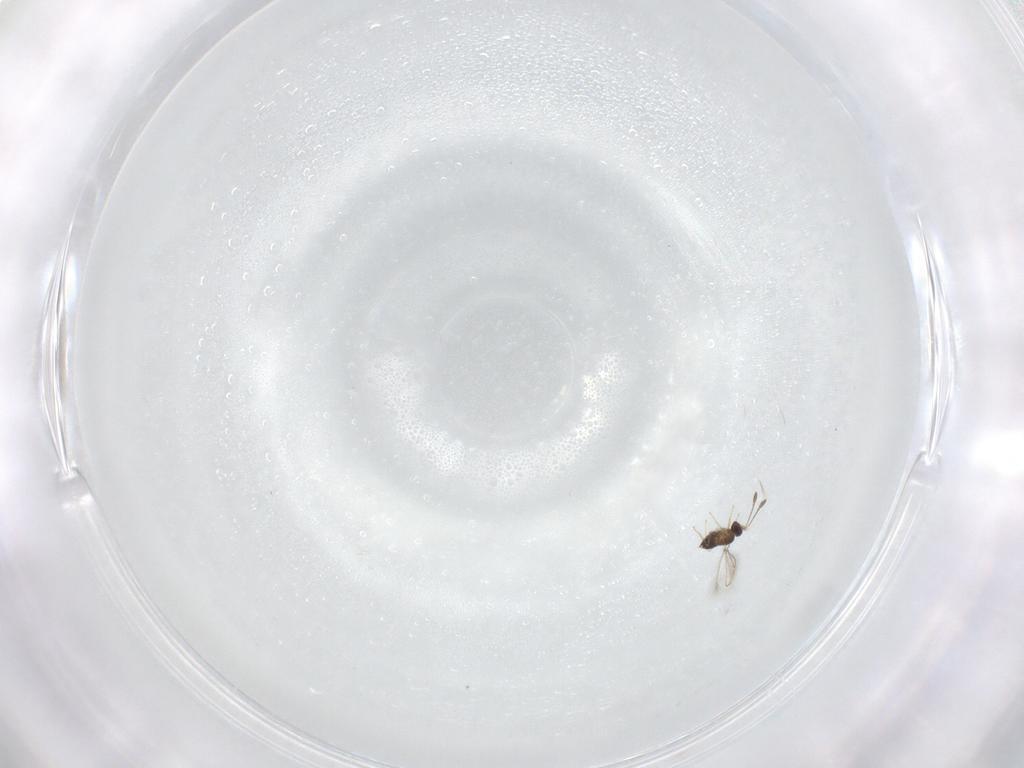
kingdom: Animalia
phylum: Arthropoda
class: Insecta
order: Hymenoptera
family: Mymaridae
